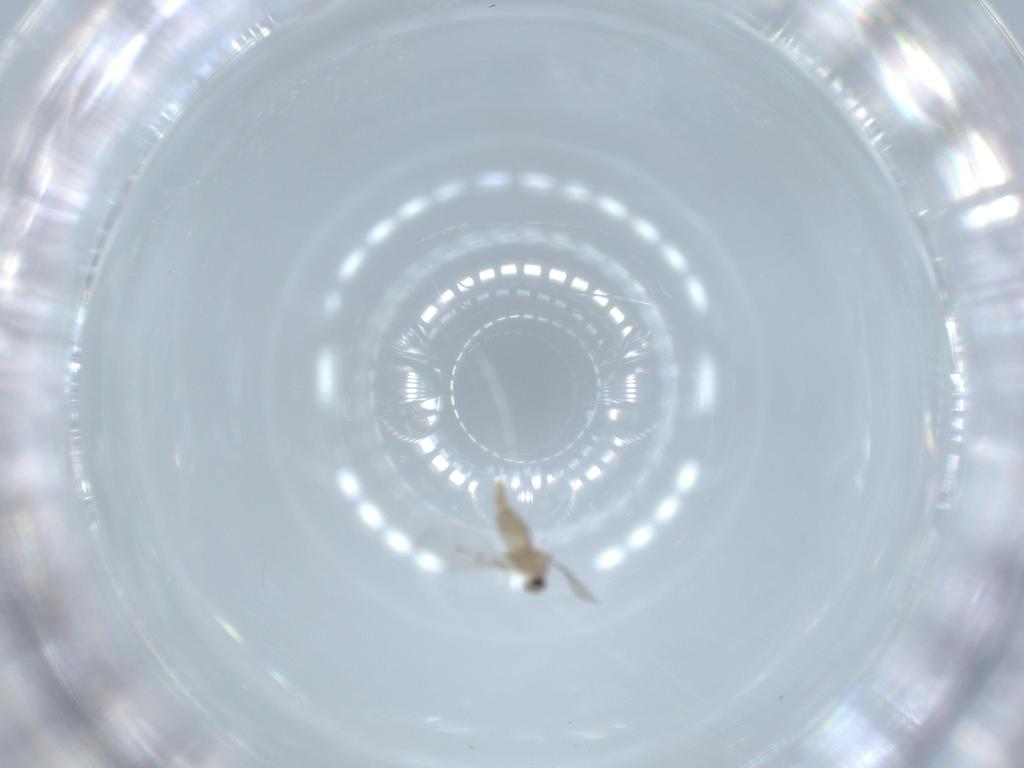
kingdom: Animalia
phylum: Arthropoda
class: Insecta
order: Diptera
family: Cecidomyiidae
